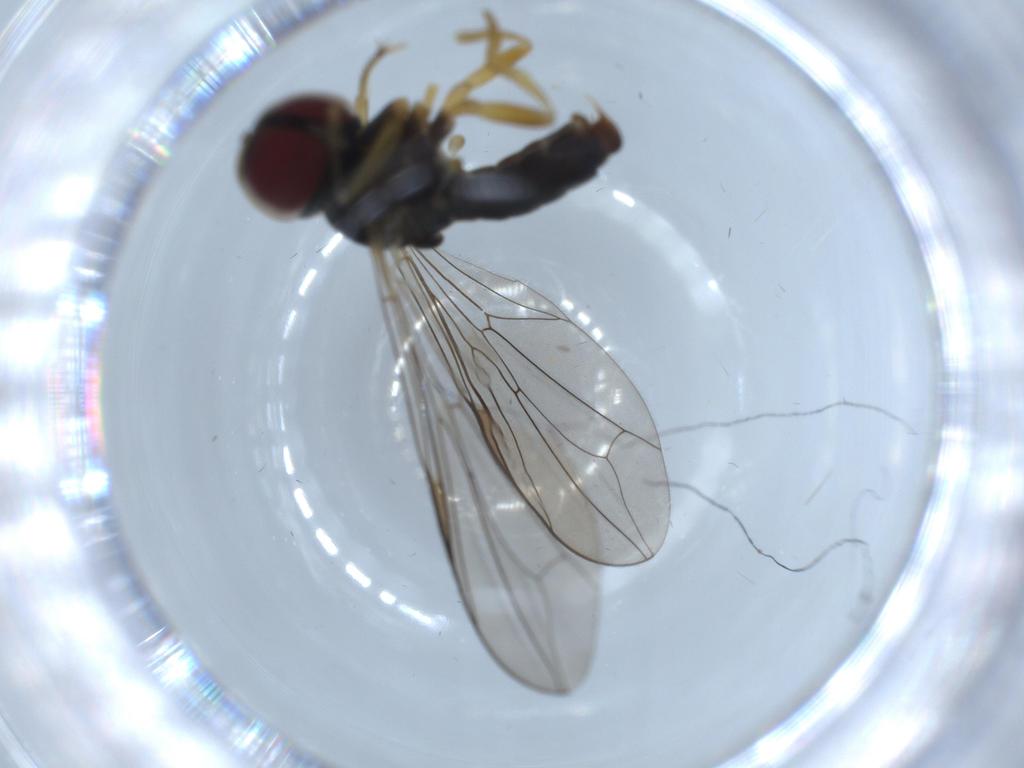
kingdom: Animalia
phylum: Arthropoda
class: Insecta
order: Diptera
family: Pipunculidae
